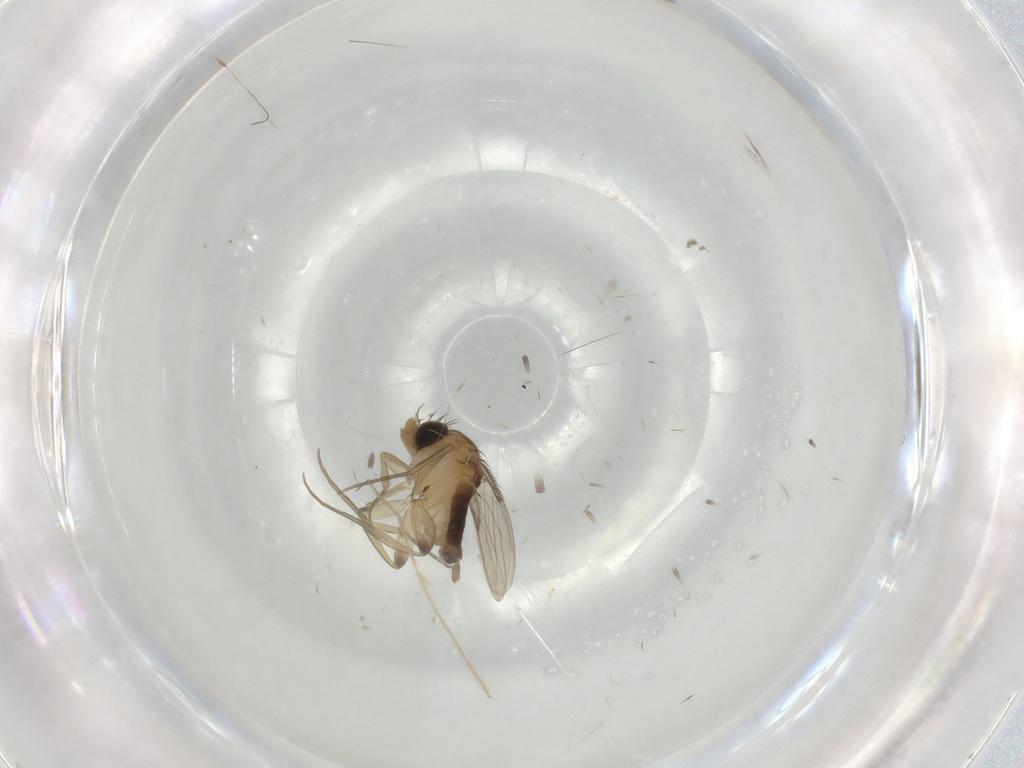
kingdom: Animalia
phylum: Arthropoda
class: Insecta
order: Diptera
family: Phoridae
